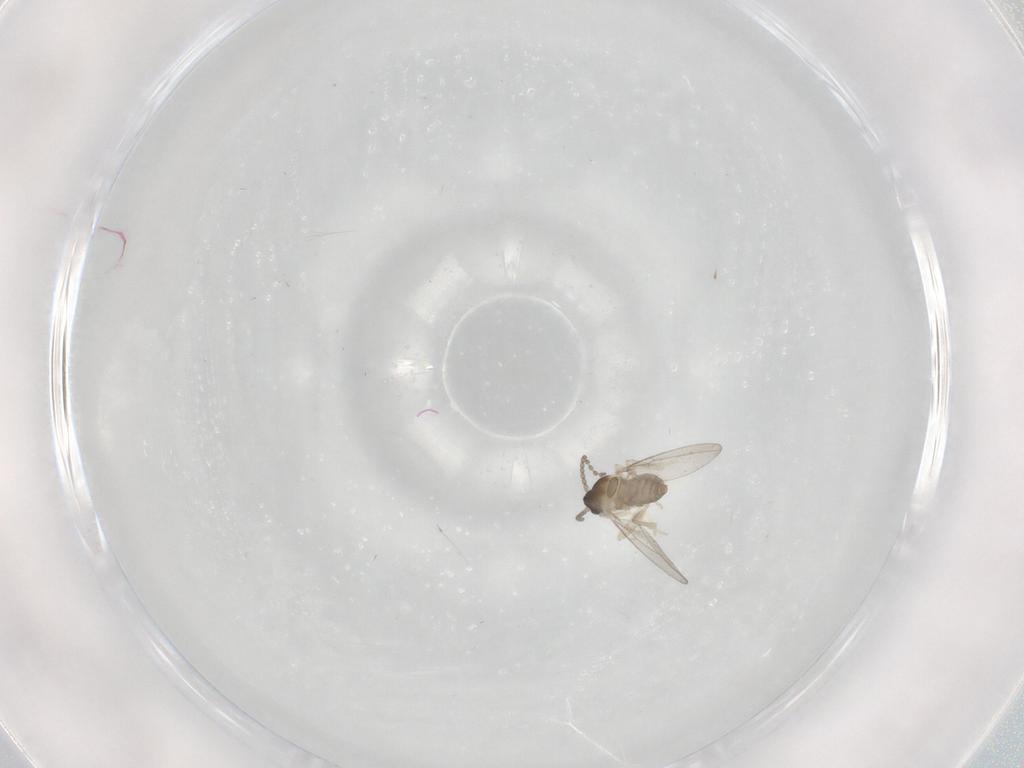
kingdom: Animalia
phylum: Arthropoda
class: Insecta
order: Diptera
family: Cecidomyiidae
